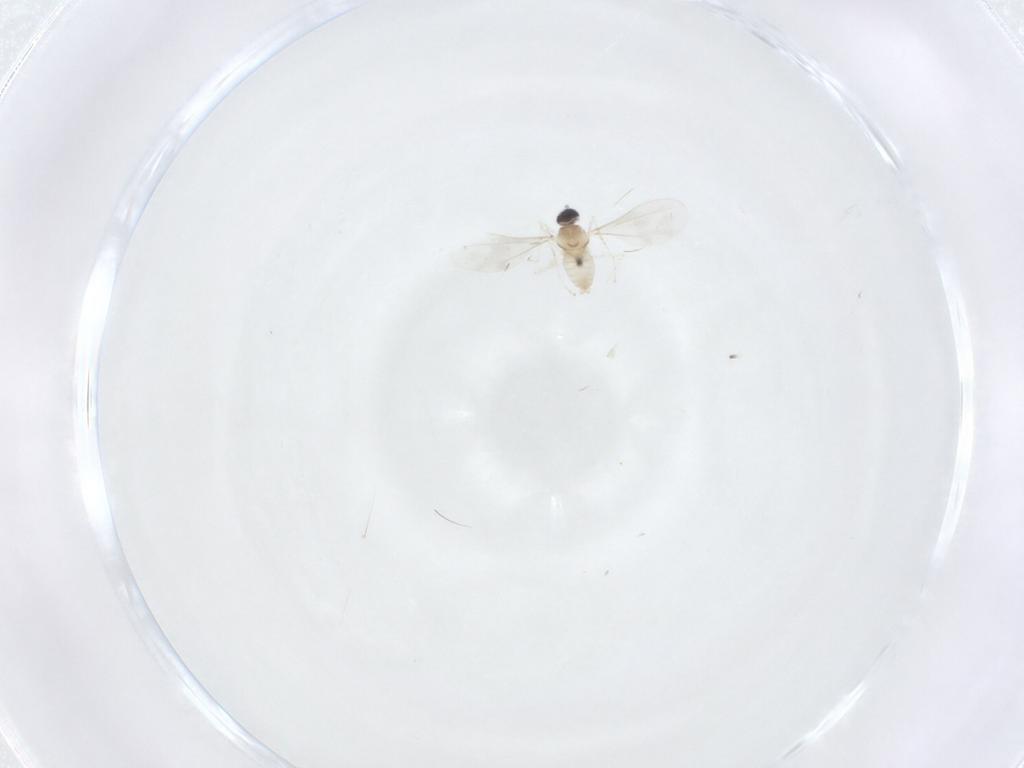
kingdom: Animalia
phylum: Arthropoda
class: Insecta
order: Diptera
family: Cecidomyiidae
